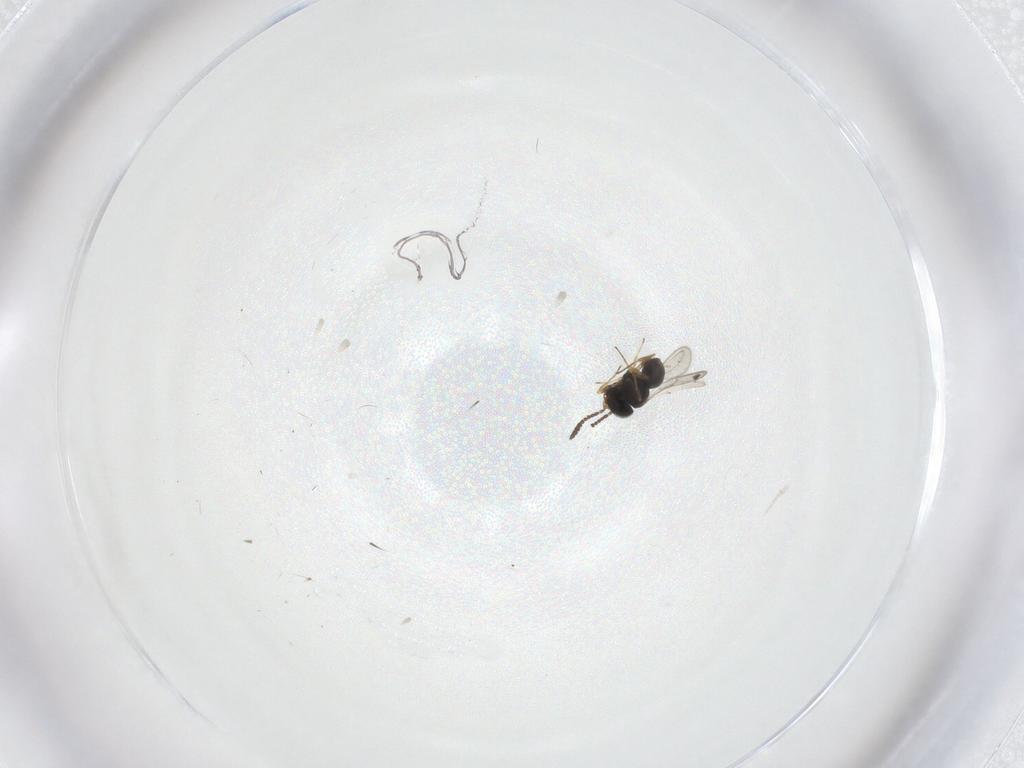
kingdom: Animalia
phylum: Arthropoda
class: Insecta
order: Hymenoptera
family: Scelionidae
